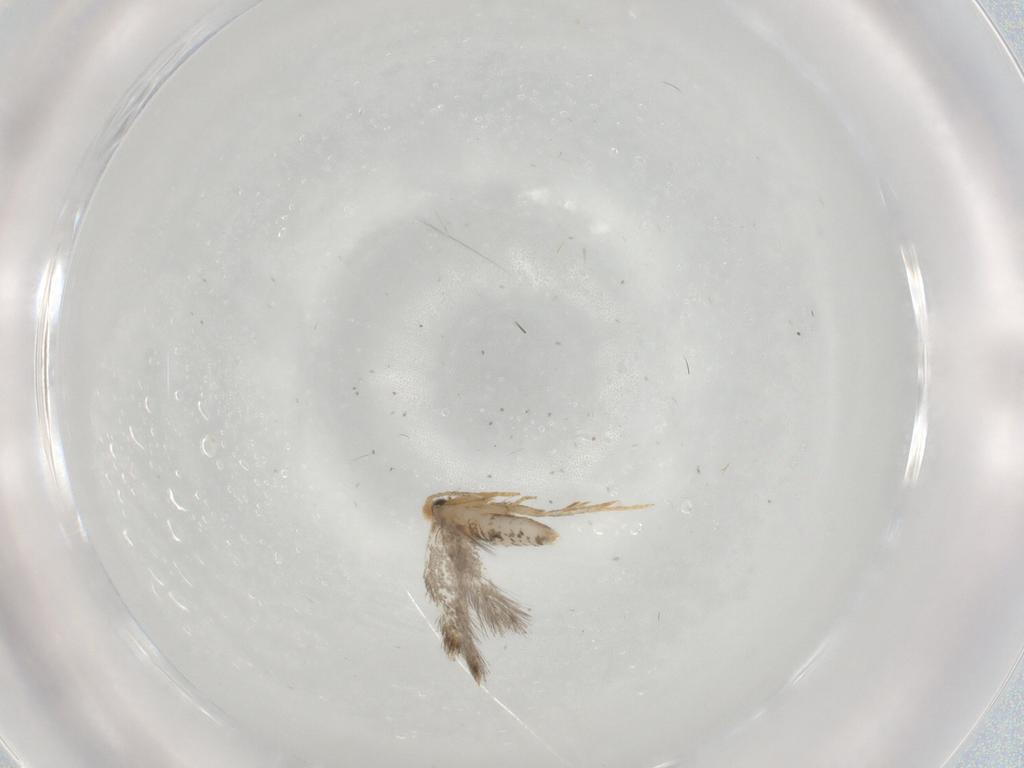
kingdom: Animalia
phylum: Arthropoda
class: Insecta
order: Lepidoptera
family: Nepticulidae
